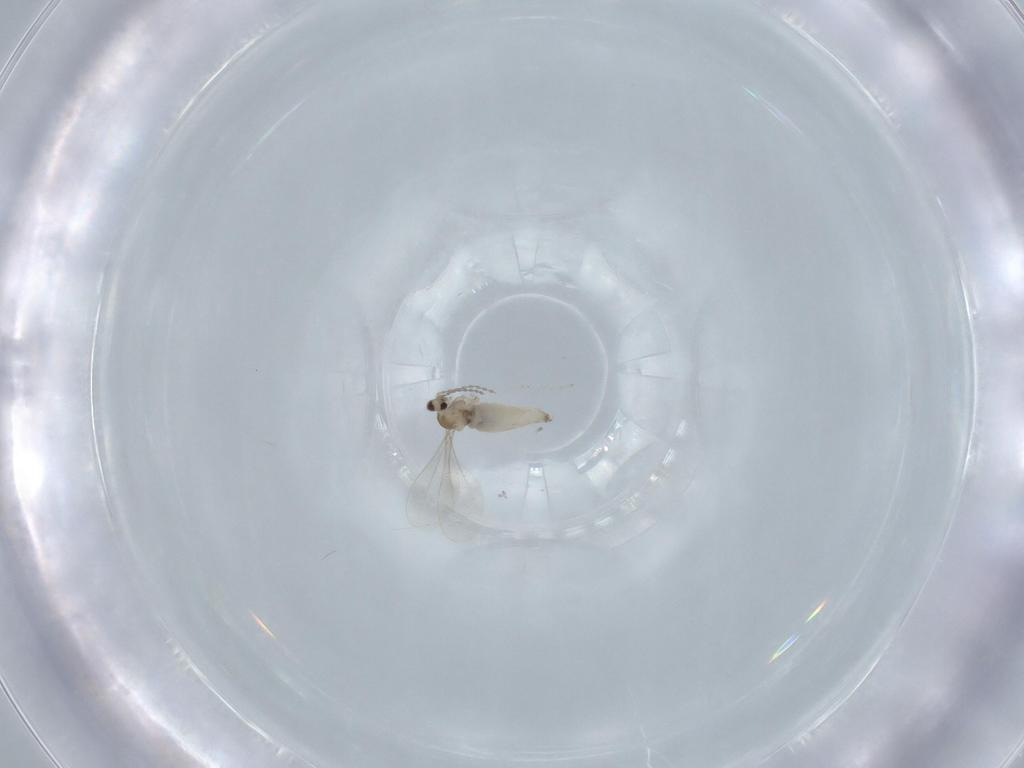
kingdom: Animalia
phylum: Arthropoda
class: Insecta
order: Diptera
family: Cecidomyiidae
